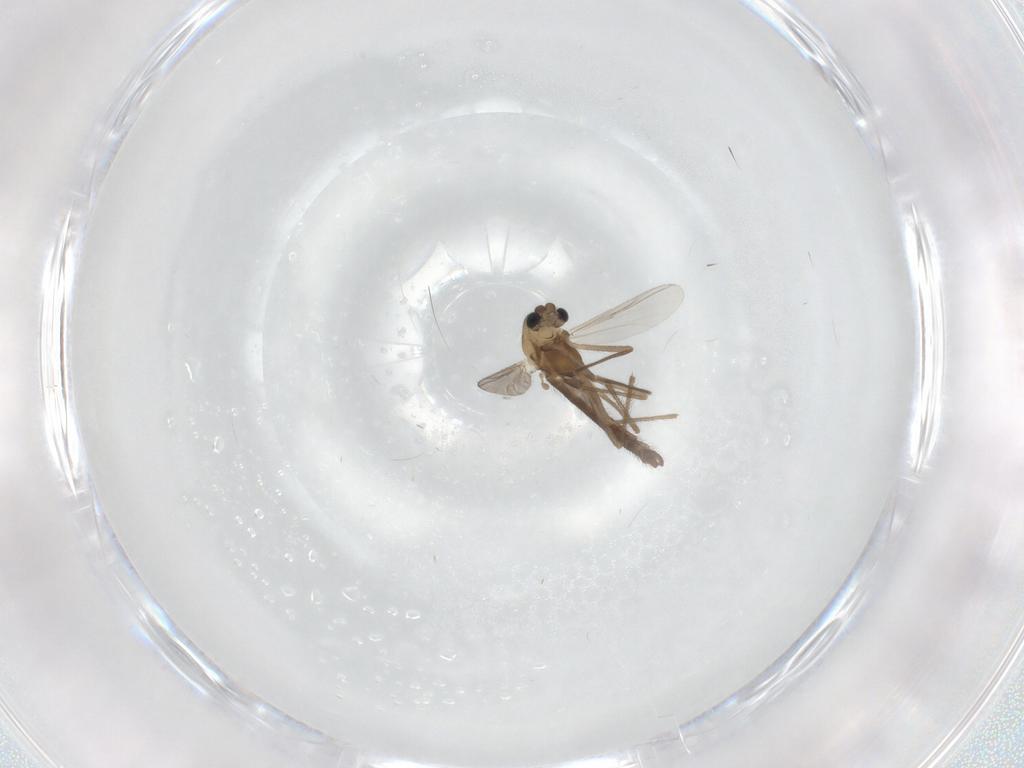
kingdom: Animalia
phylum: Arthropoda
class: Insecta
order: Diptera
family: Chironomidae
